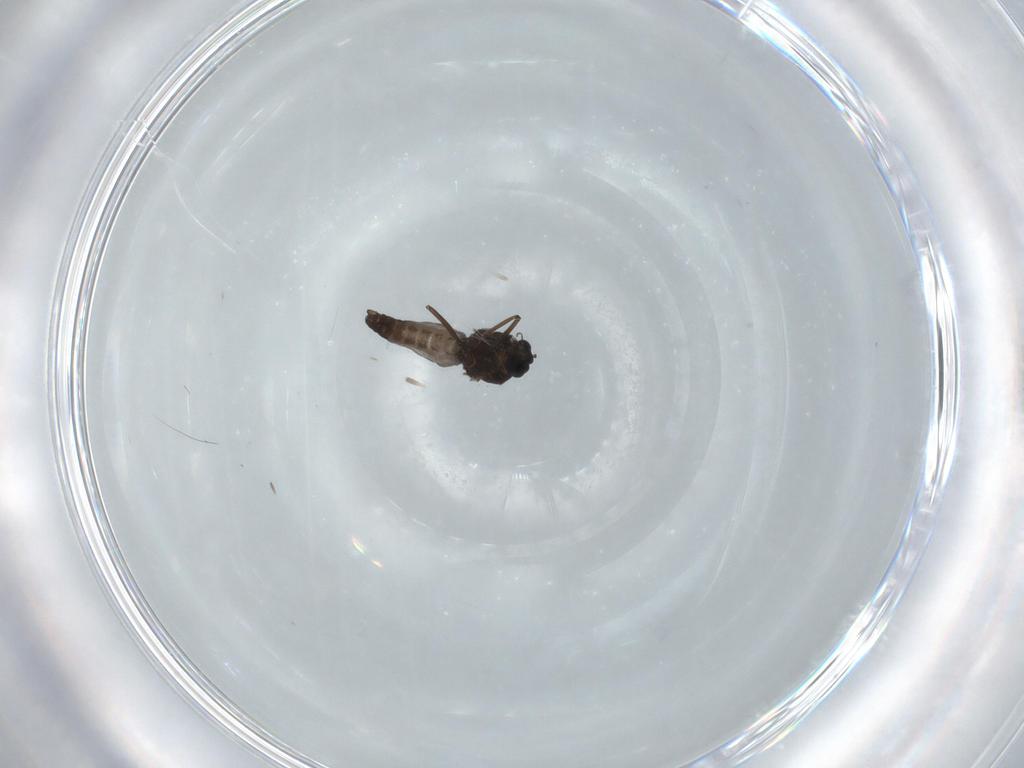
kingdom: Animalia
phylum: Arthropoda
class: Insecta
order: Diptera
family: Ceratopogonidae
